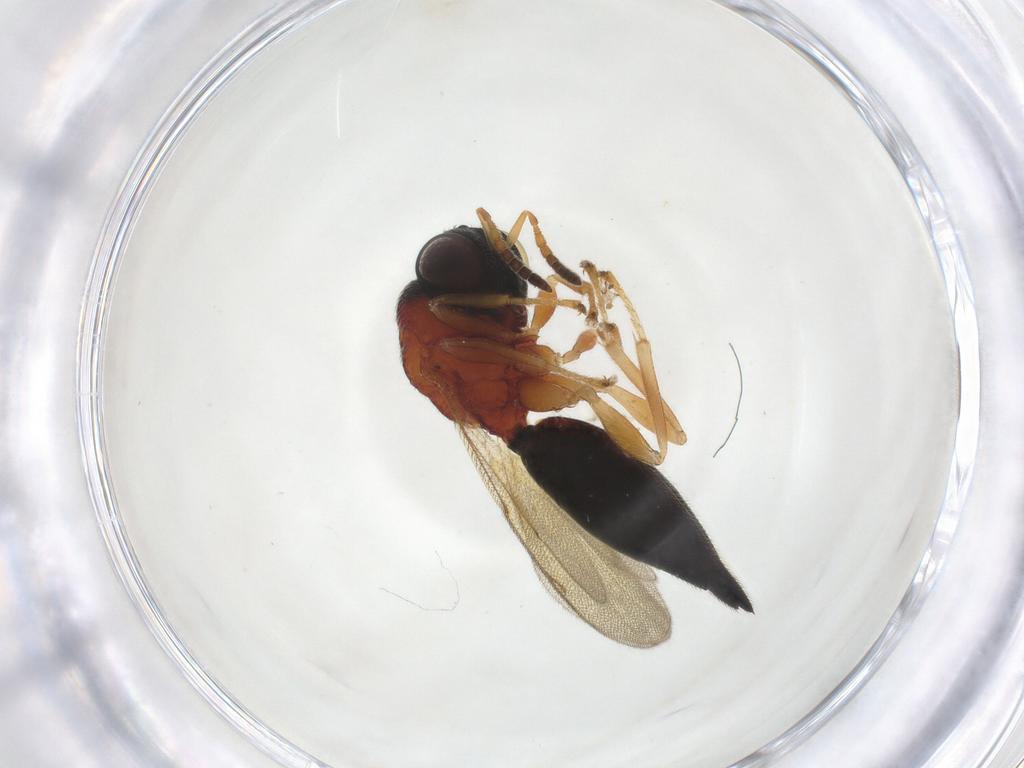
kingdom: Animalia
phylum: Arthropoda
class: Insecta
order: Hymenoptera
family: Eurytomidae
